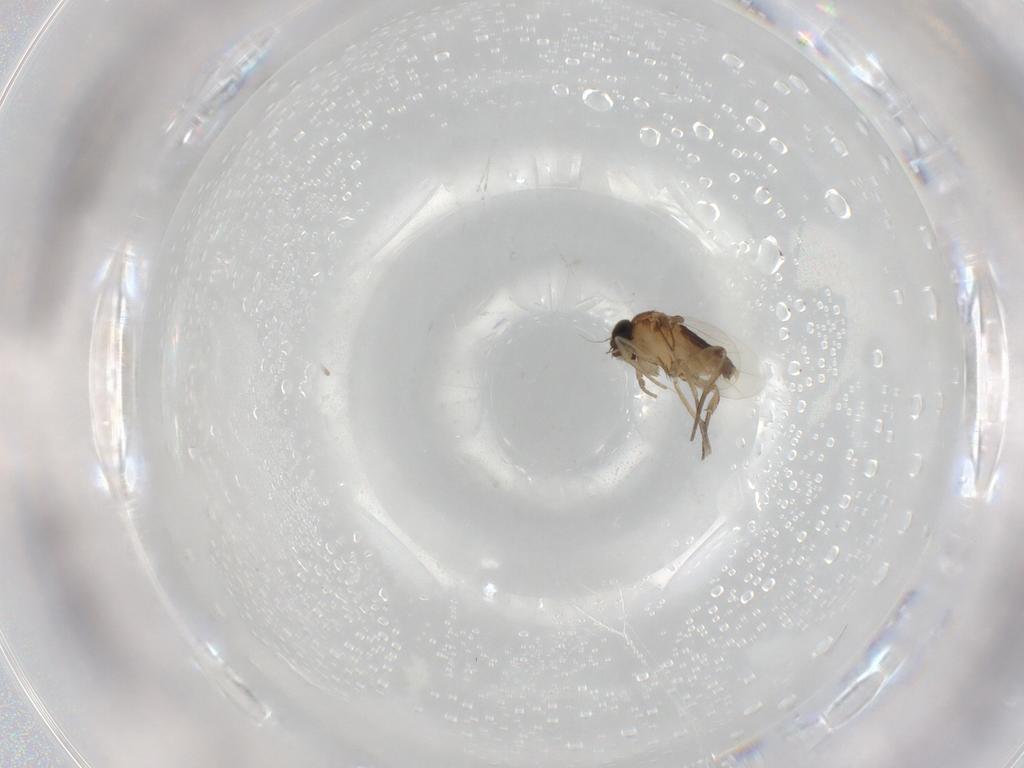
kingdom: Animalia
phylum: Arthropoda
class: Insecta
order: Diptera
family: Phoridae
